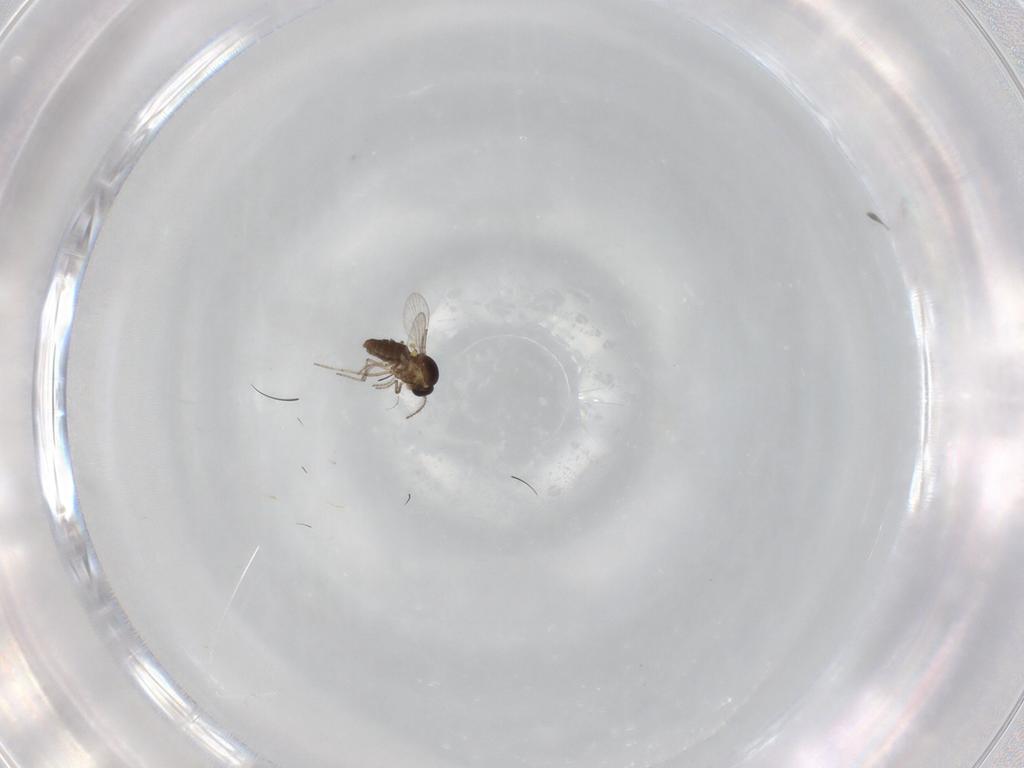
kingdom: Animalia
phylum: Arthropoda
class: Insecta
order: Diptera
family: Ceratopogonidae
